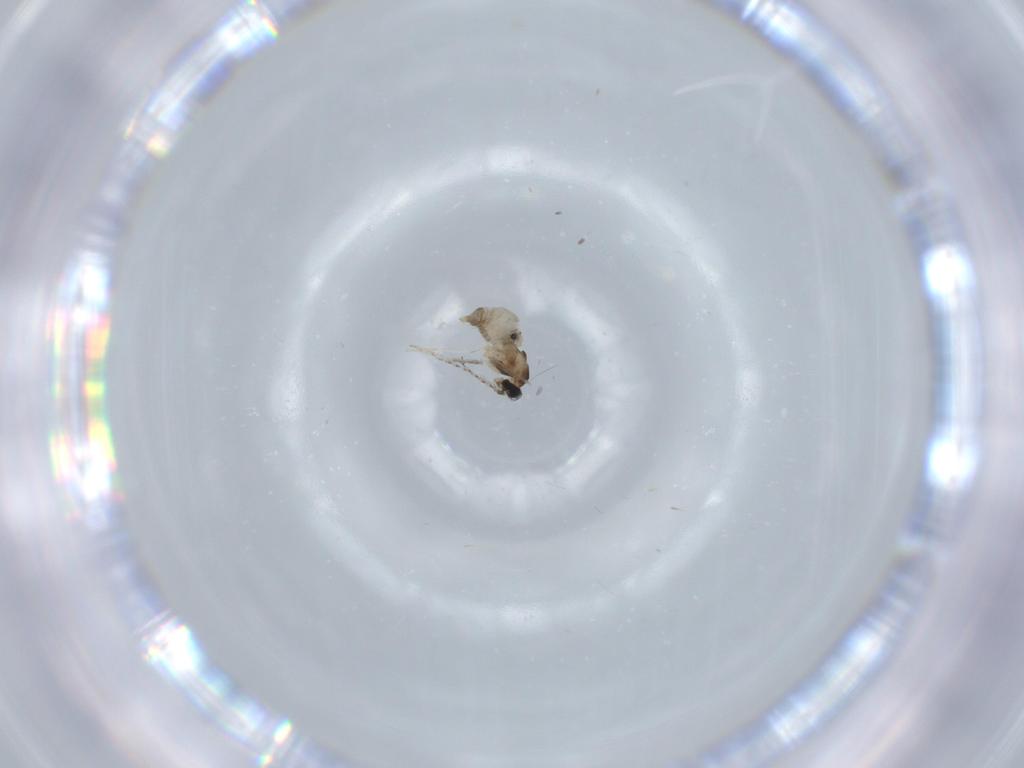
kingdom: Animalia
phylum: Arthropoda
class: Insecta
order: Diptera
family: Cecidomyiidae
